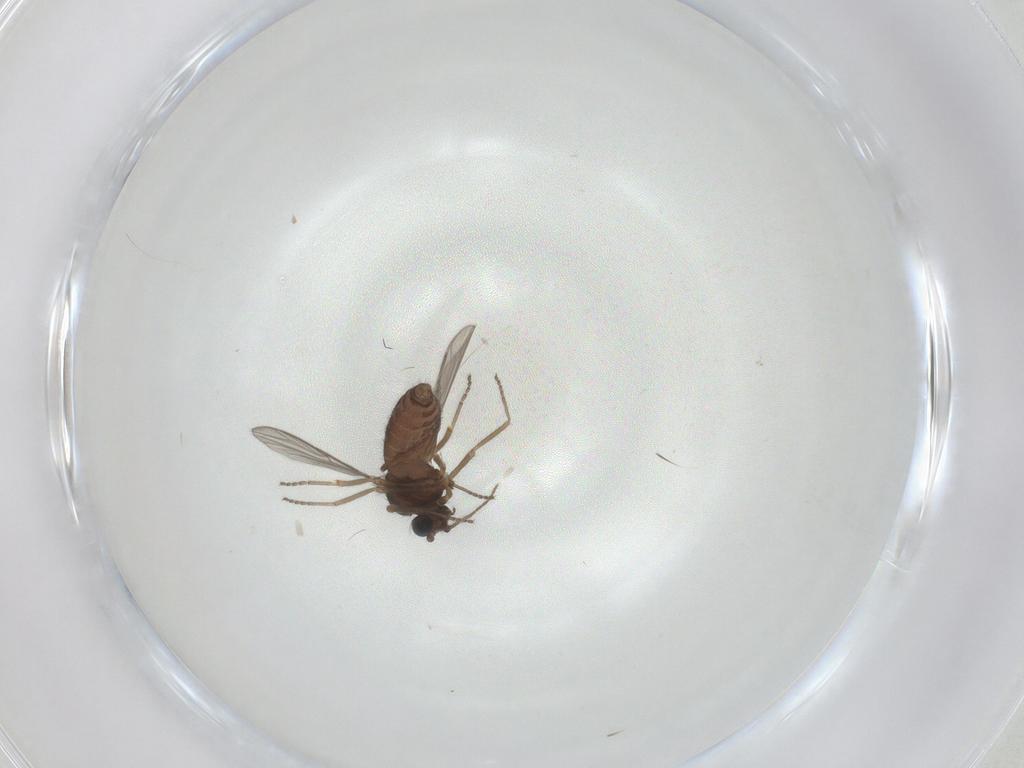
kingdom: Animalia
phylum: Arthropoda
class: Insecta
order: Diptera
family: Ceratopogonidae
